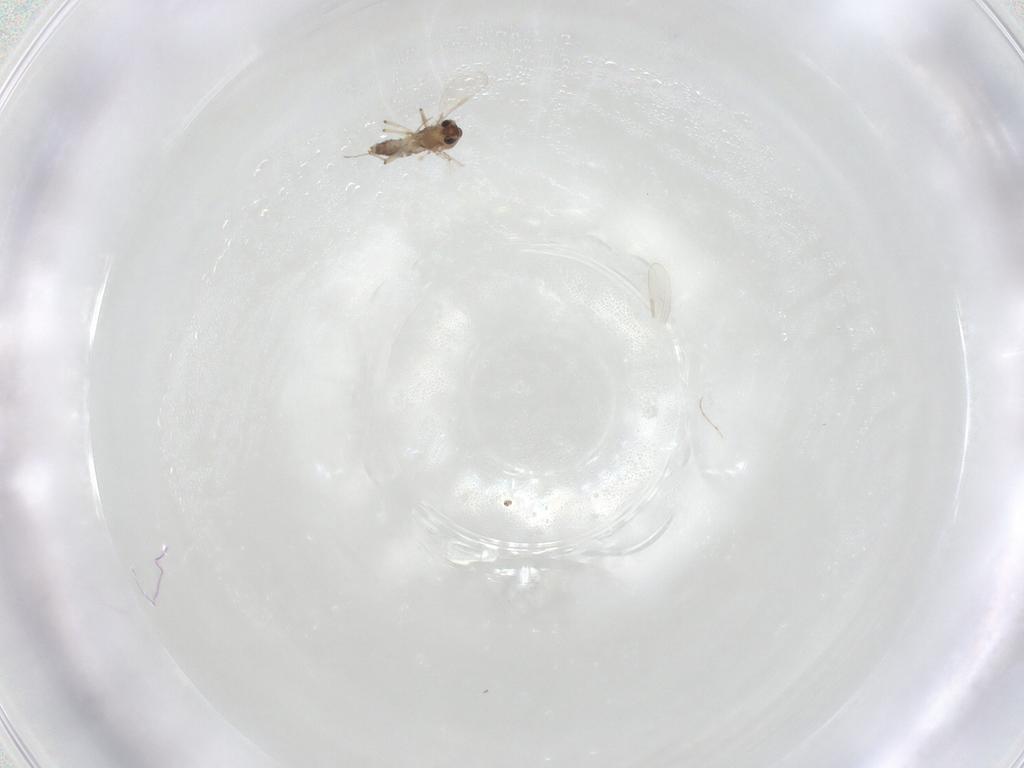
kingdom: Animalia
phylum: Arthropoda
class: Insecta
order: Diptera
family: Chironomidae
